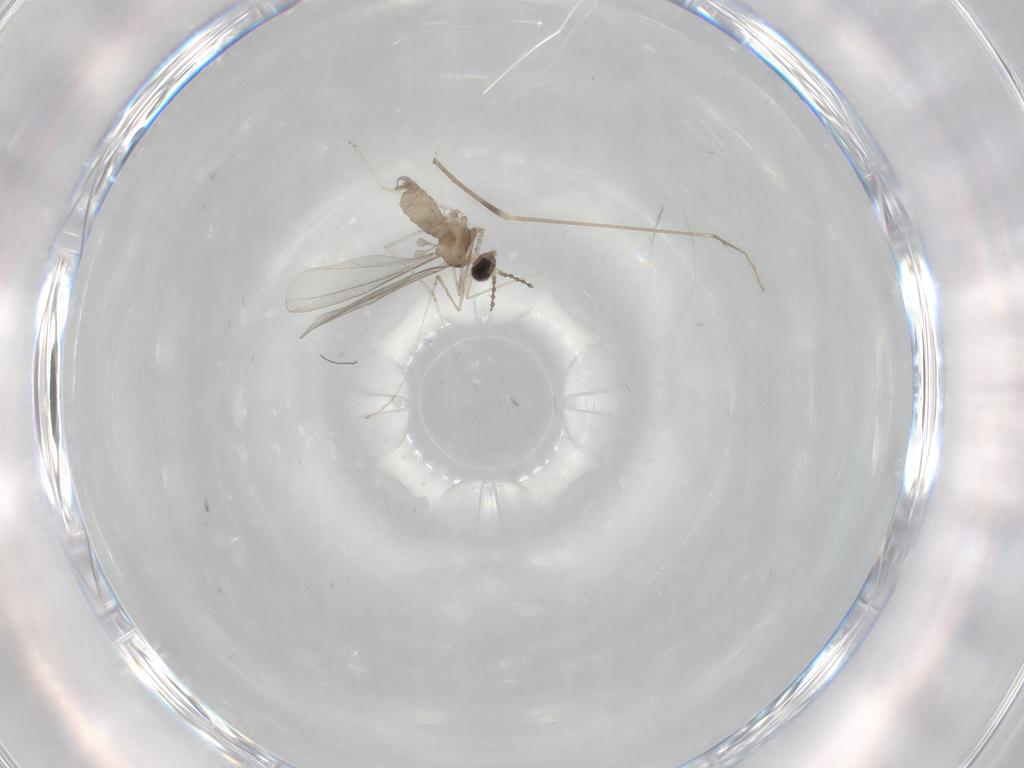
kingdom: Animalia
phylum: Arthropoda
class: Insecta
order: Diptera
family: Cecidomyiidae
